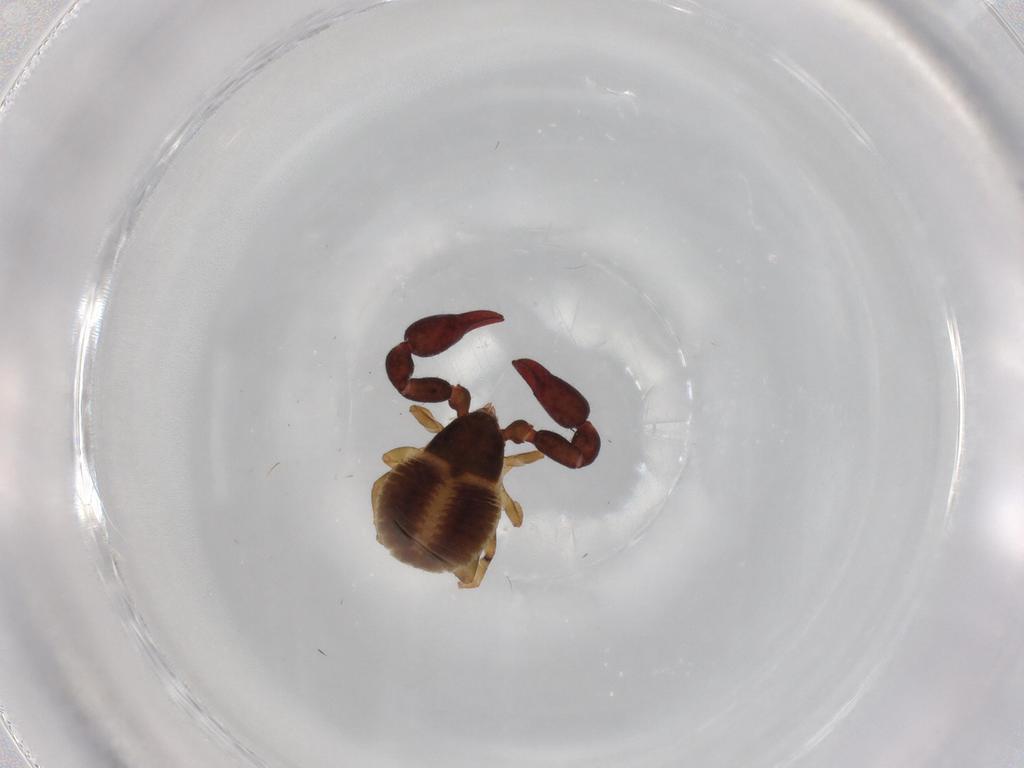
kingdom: Animalia
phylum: Arthropoda
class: Arachnida
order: Pseudoscorpiones
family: Chernetidae
